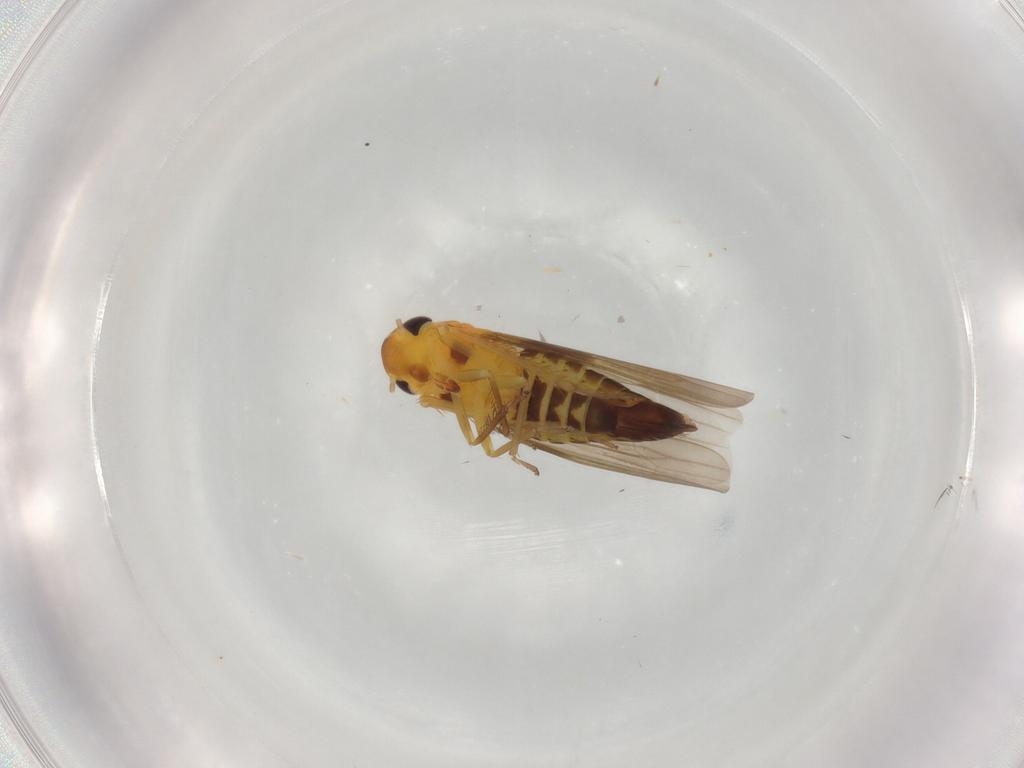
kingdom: Animalia
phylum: Arthropoda
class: Insecta
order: Hemiptera
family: Cicadellidae
